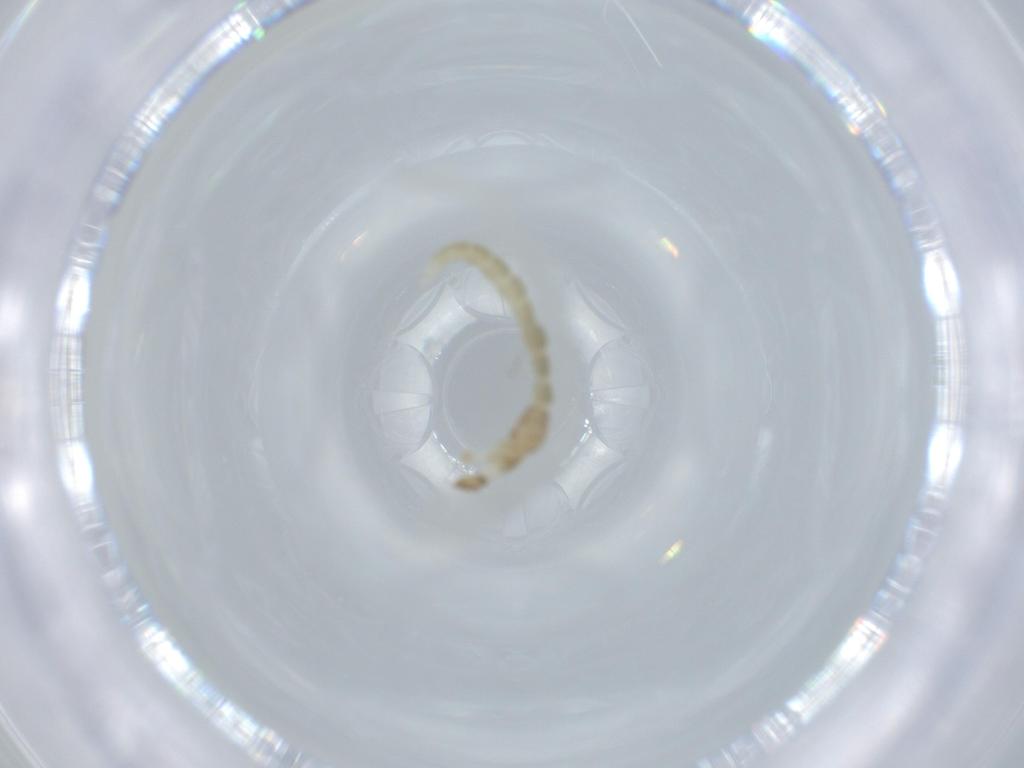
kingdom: Animalia
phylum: Arthropoda
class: Insecta
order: Diptera
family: Chironomidae
